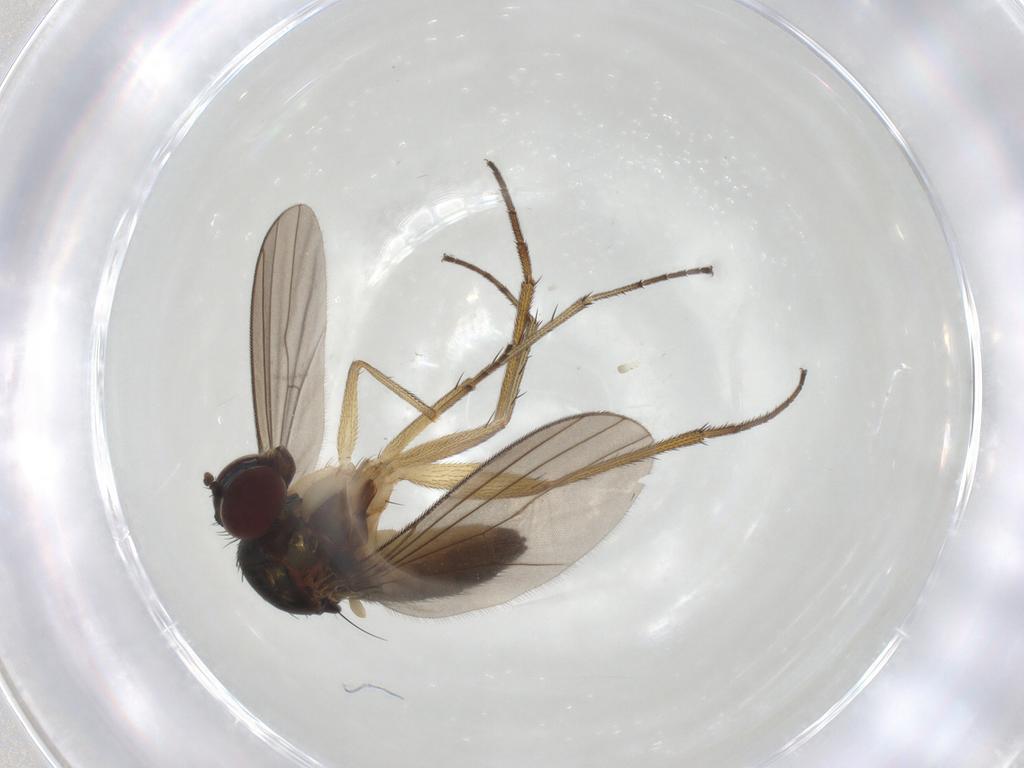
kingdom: Animalia
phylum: Arthropoda
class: Insecta
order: Diptera
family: Dolichopodidae
